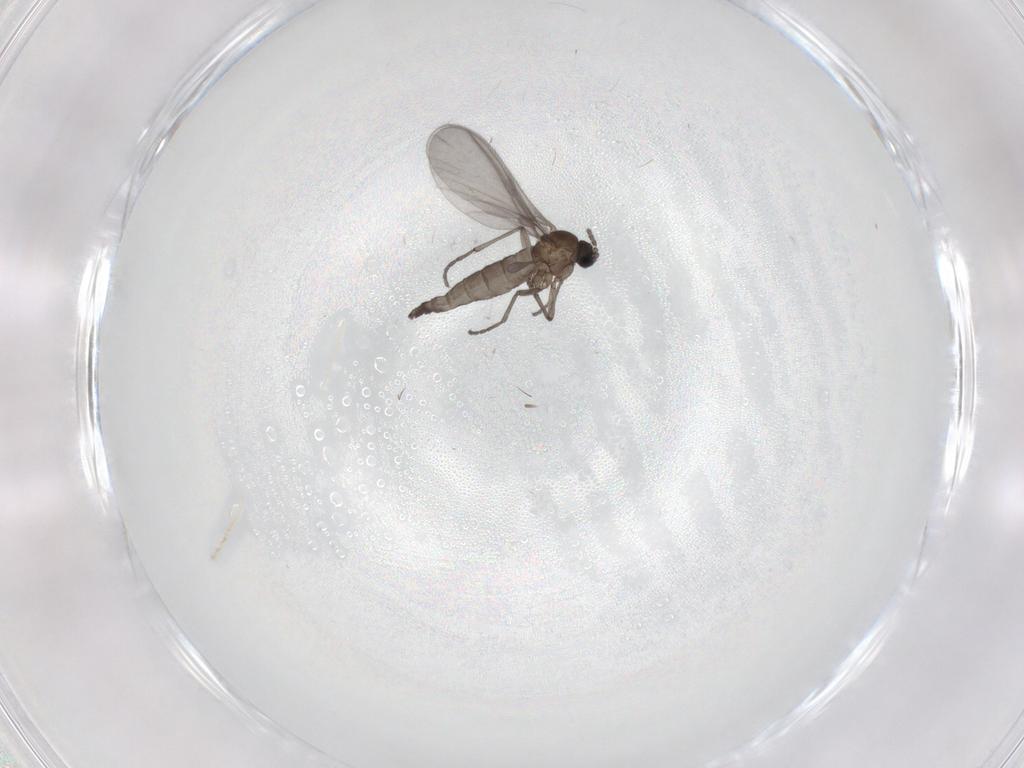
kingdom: Animalia
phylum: Arthropoda
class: Insecta
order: Diptera
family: Sciaridae
